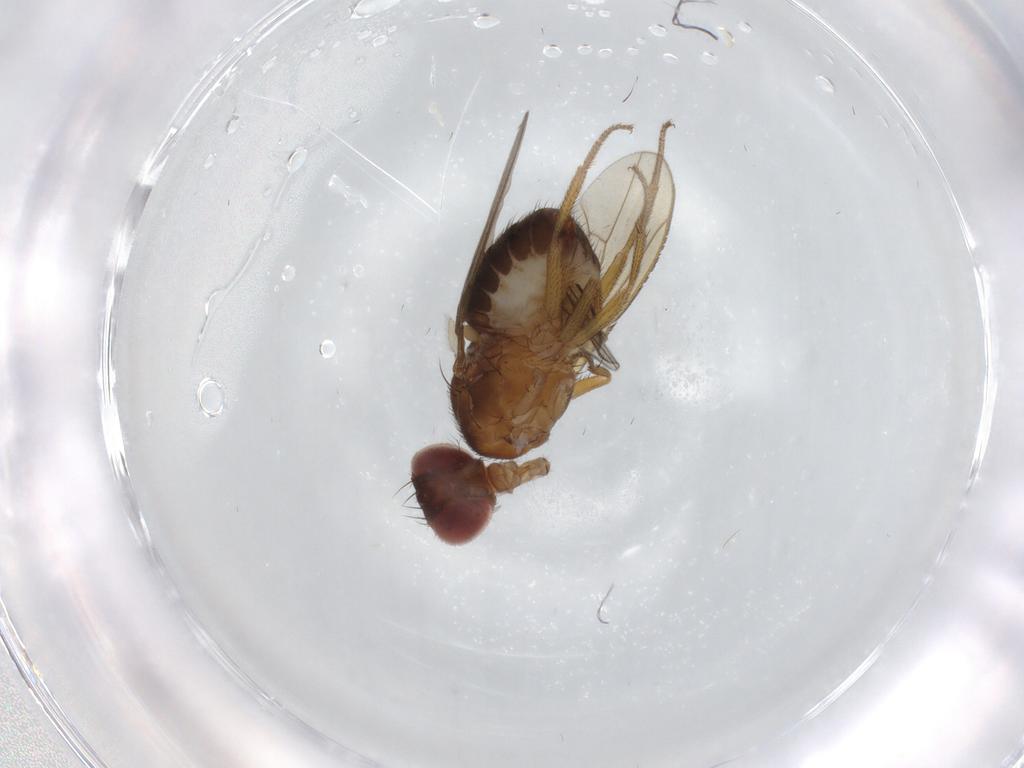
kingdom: Animalia
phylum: Arthropoda
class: Insecta
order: Diptera
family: Drosophilidae
